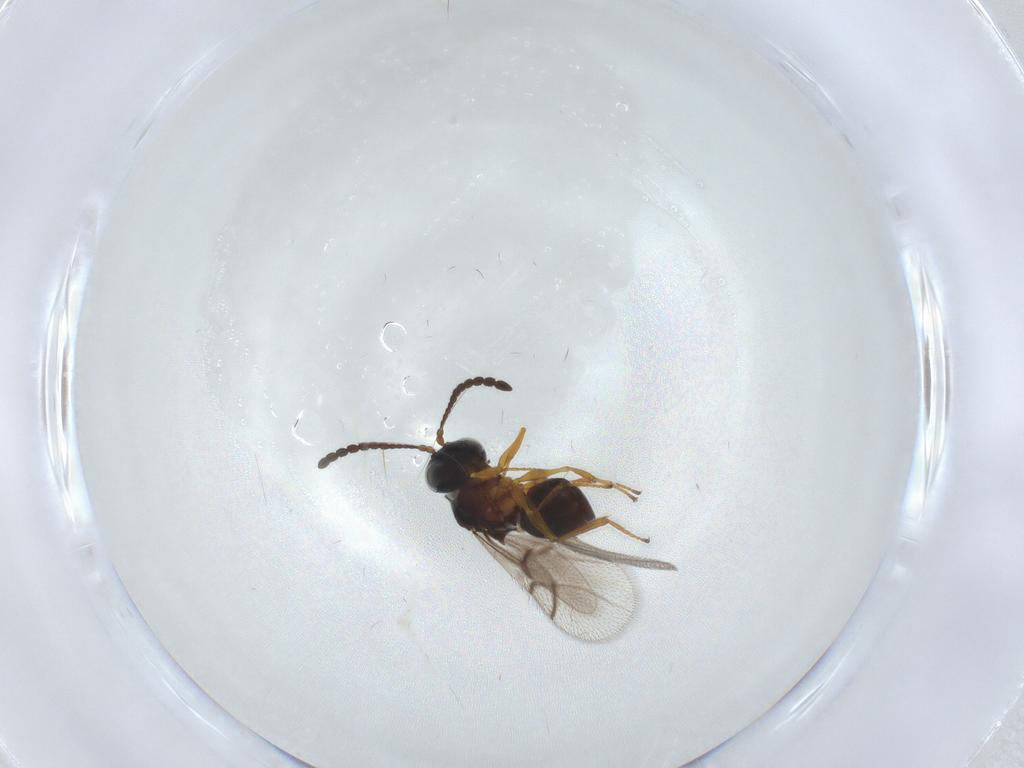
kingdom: Animalia
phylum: Arthropoda
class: Insecta
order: Hymenoptera
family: Figitidae
